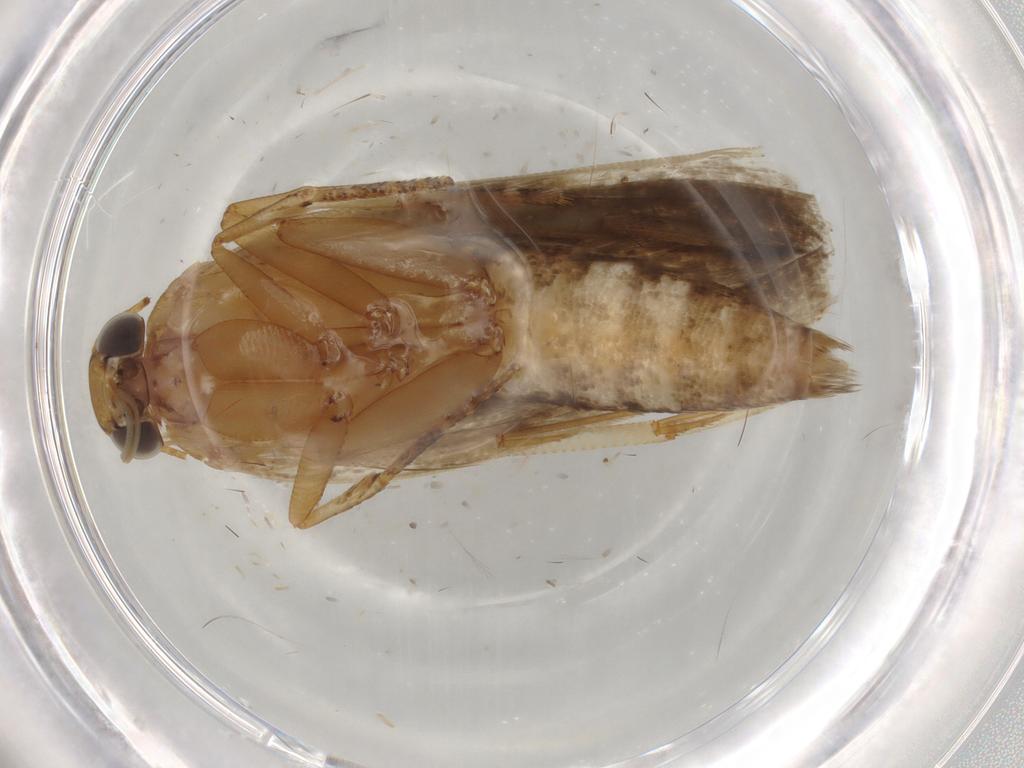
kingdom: Animalia
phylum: Arthropoda
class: Insecta
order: Lepidoptera
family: Gelechiidae
